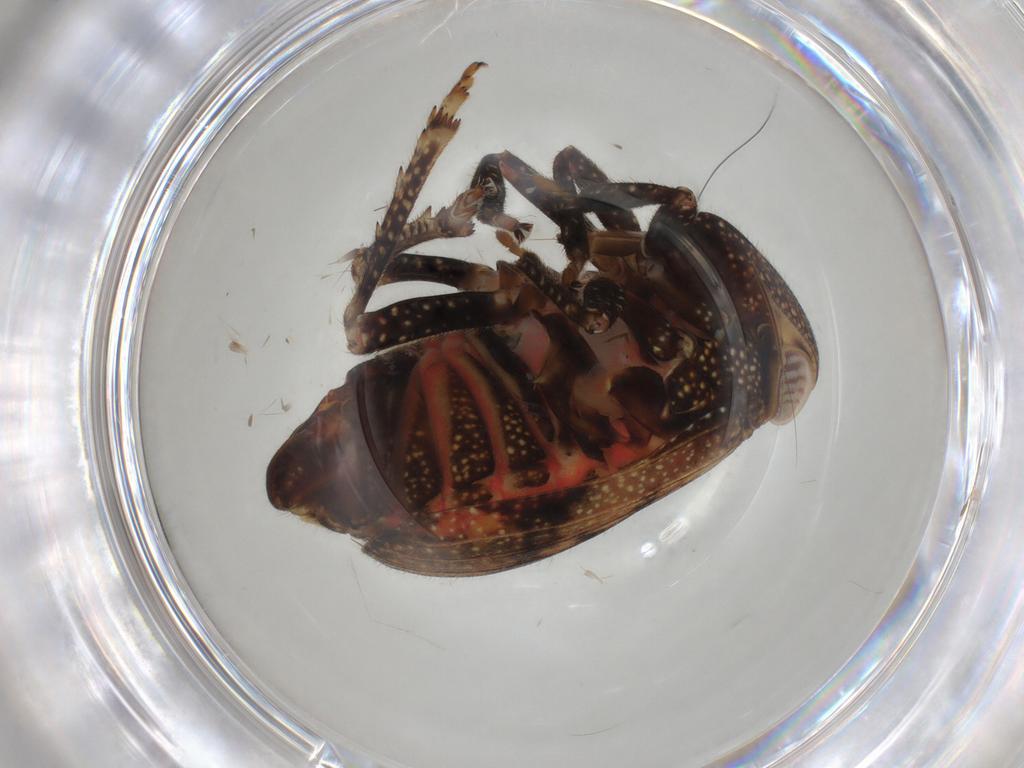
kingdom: Animalia
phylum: Arthropoda
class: Insecta
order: Hemiptera
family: Tropiduchidae
